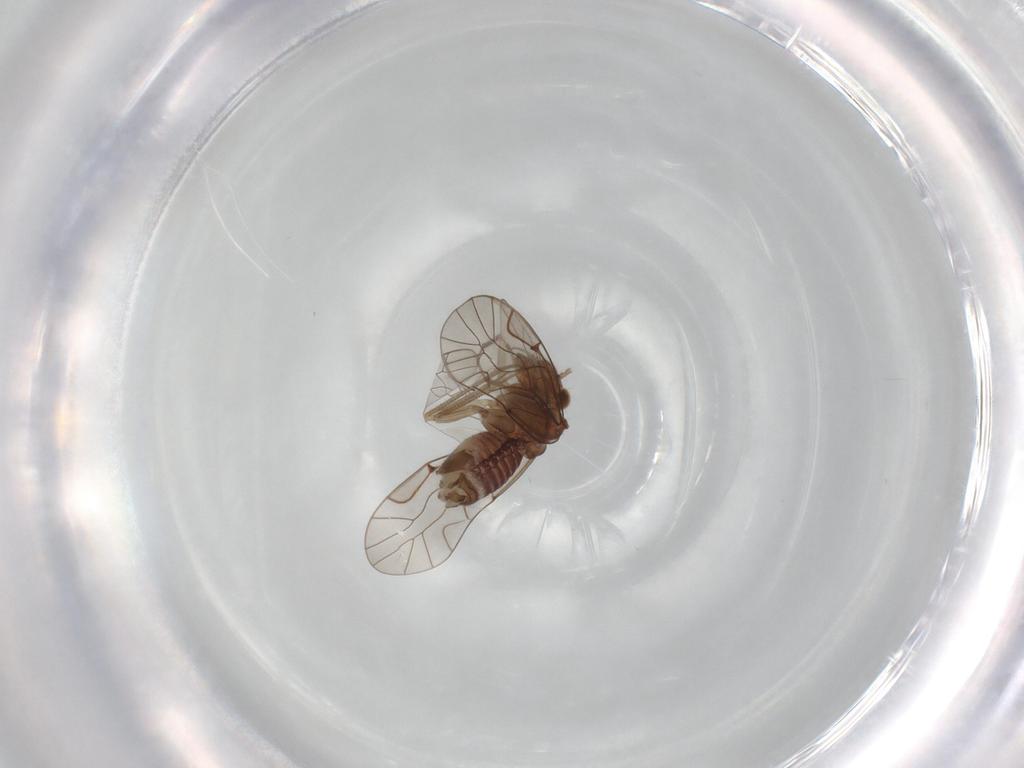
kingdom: Animalia
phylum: Arthropoda
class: Insecta
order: Psocodea
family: Lachesillidae
